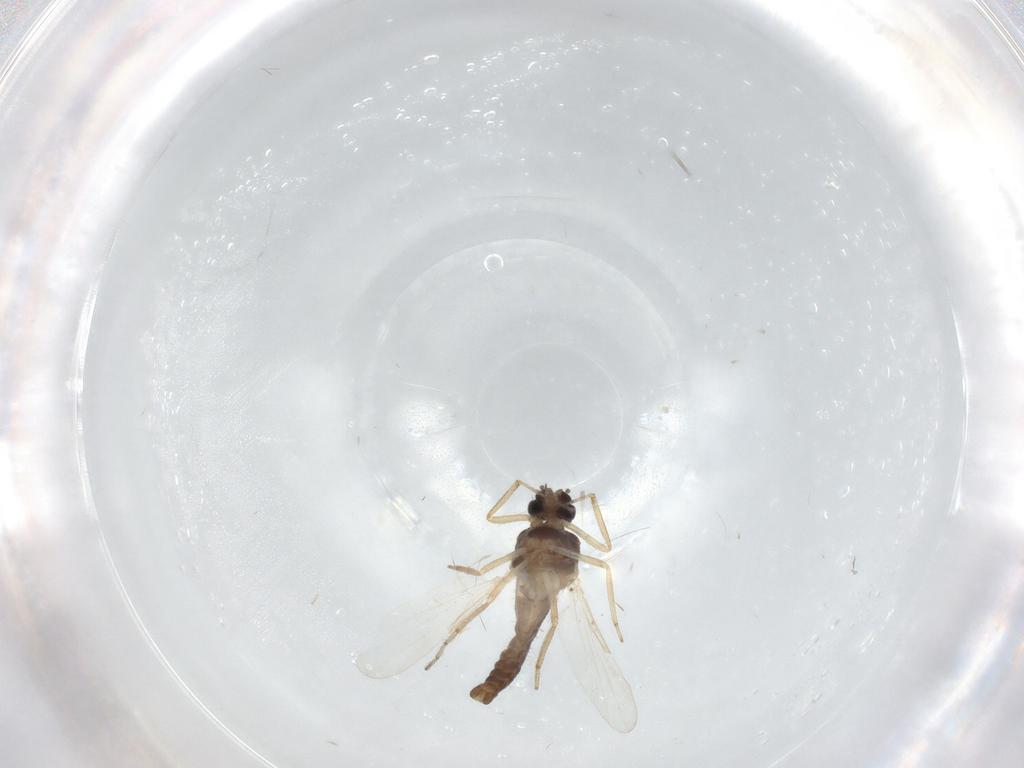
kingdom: Animalia
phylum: Arthropoda
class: Insecta
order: Diptera
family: Ceratopogonidae
